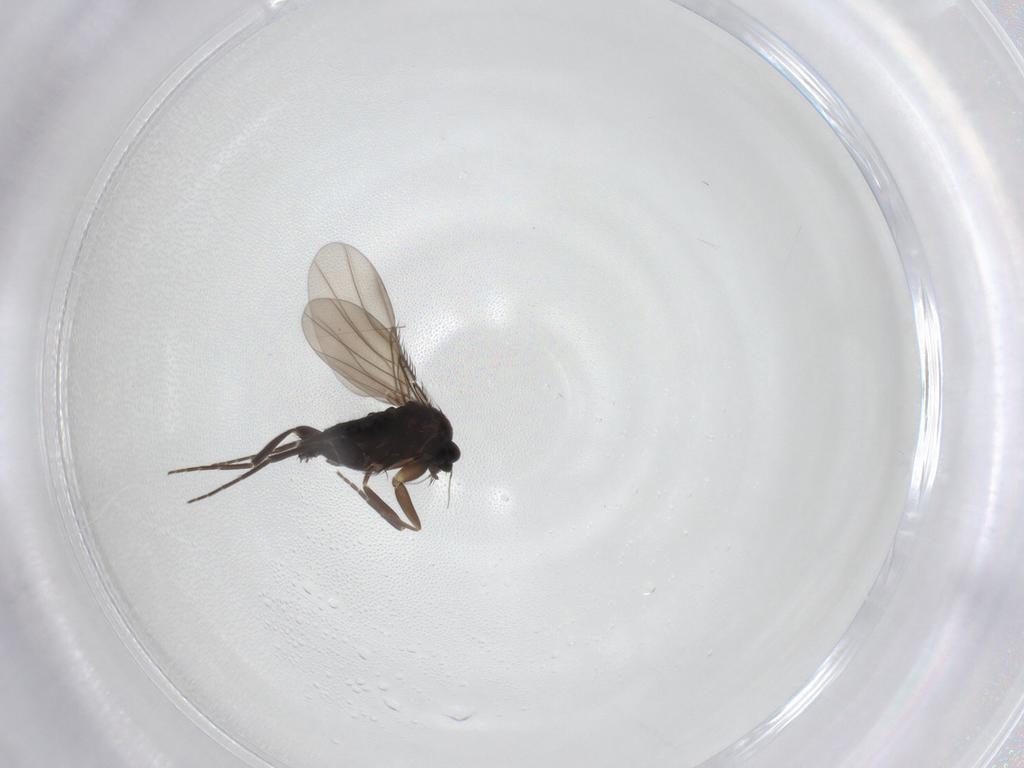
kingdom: Animalia
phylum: Arthropoda
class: Insecta
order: Diptera
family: Phoridae
